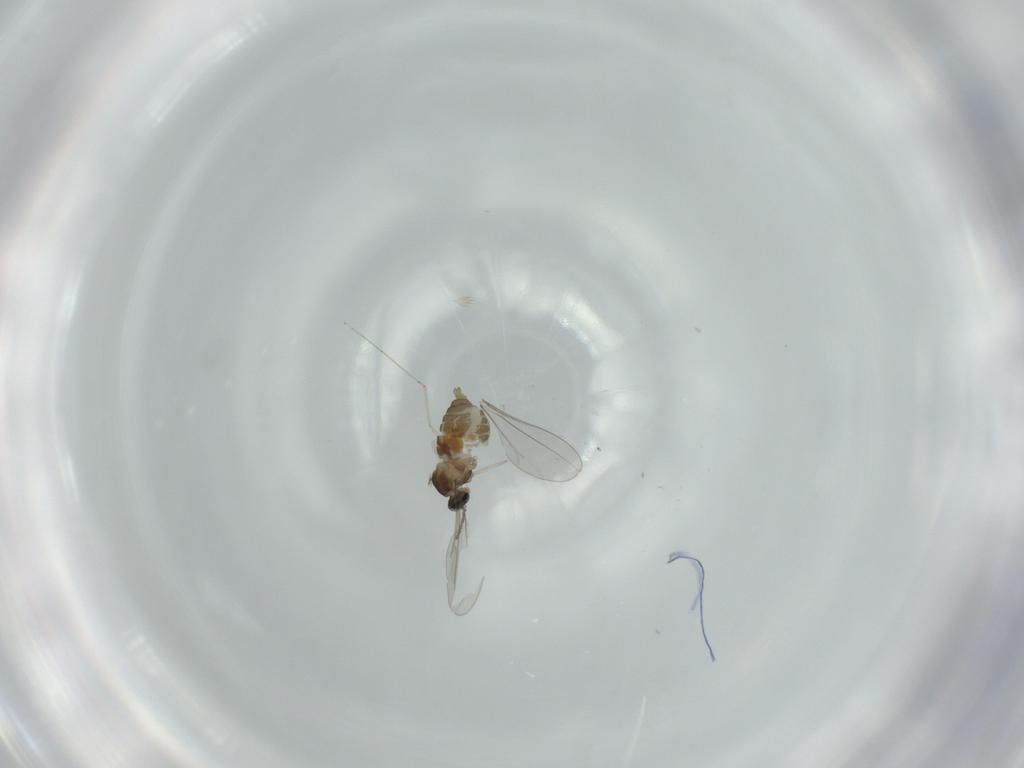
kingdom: Animalia
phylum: Arthropoda
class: Insecta
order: Diptera
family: Cecidomyiidae
